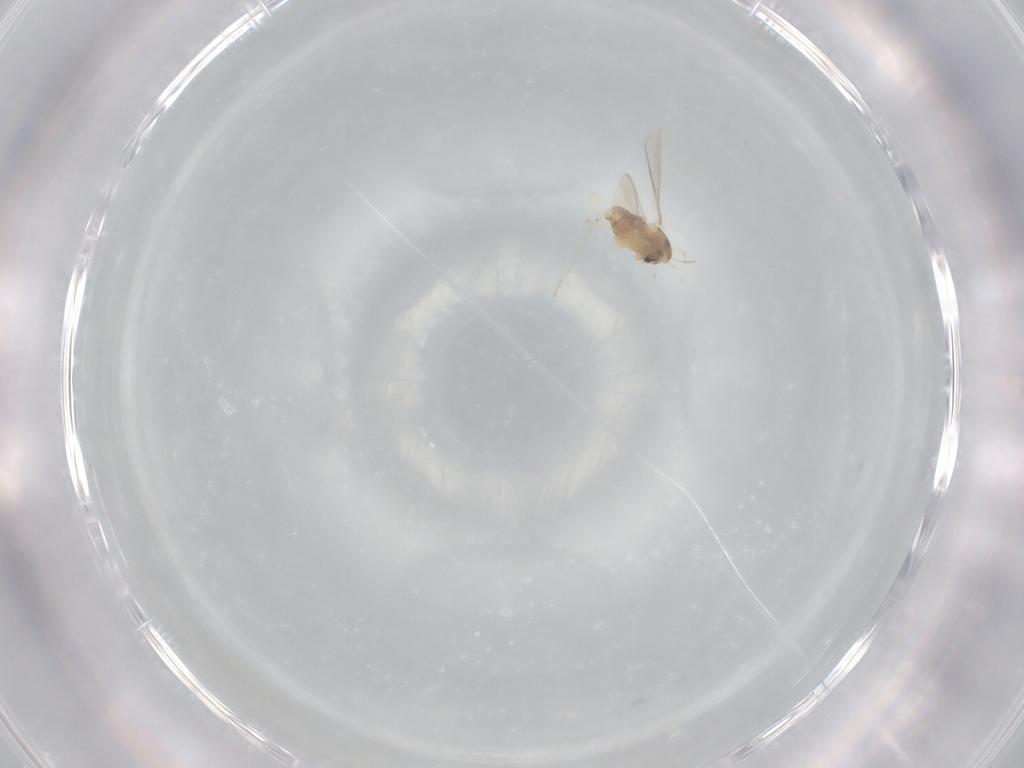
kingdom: Animalia
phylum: Arthropoda
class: Insecta
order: Diptera
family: Chironomidae
